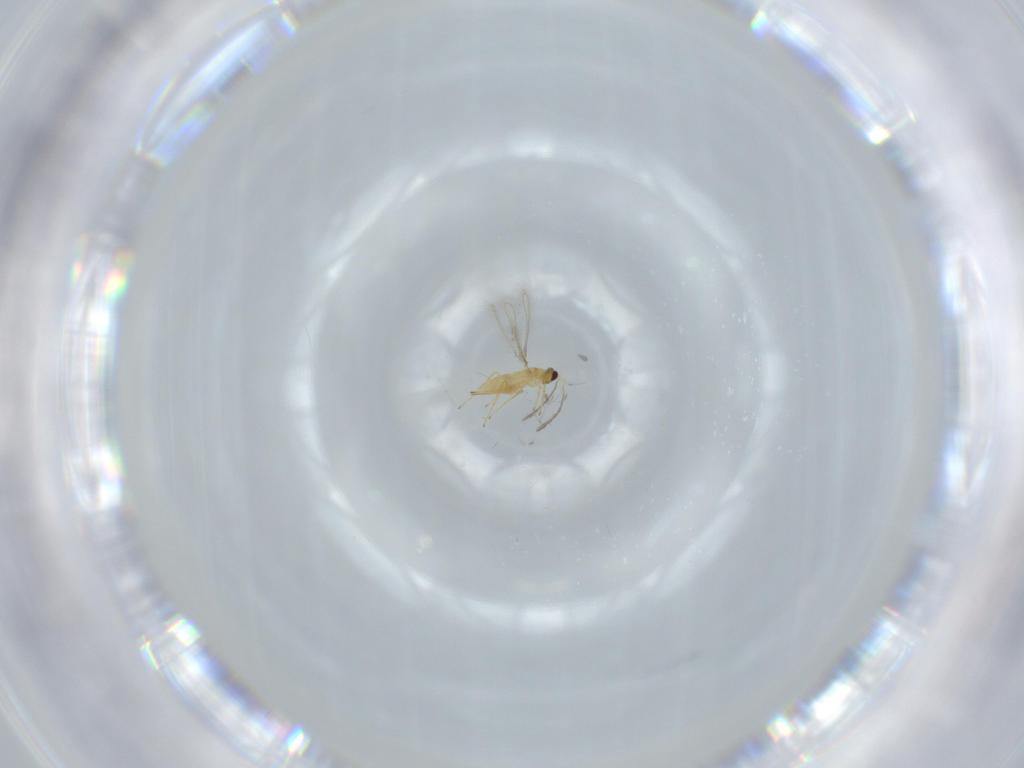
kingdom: Animalia
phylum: Arthropoda
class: Insecta
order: Hymenoptera
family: Mymaridae
